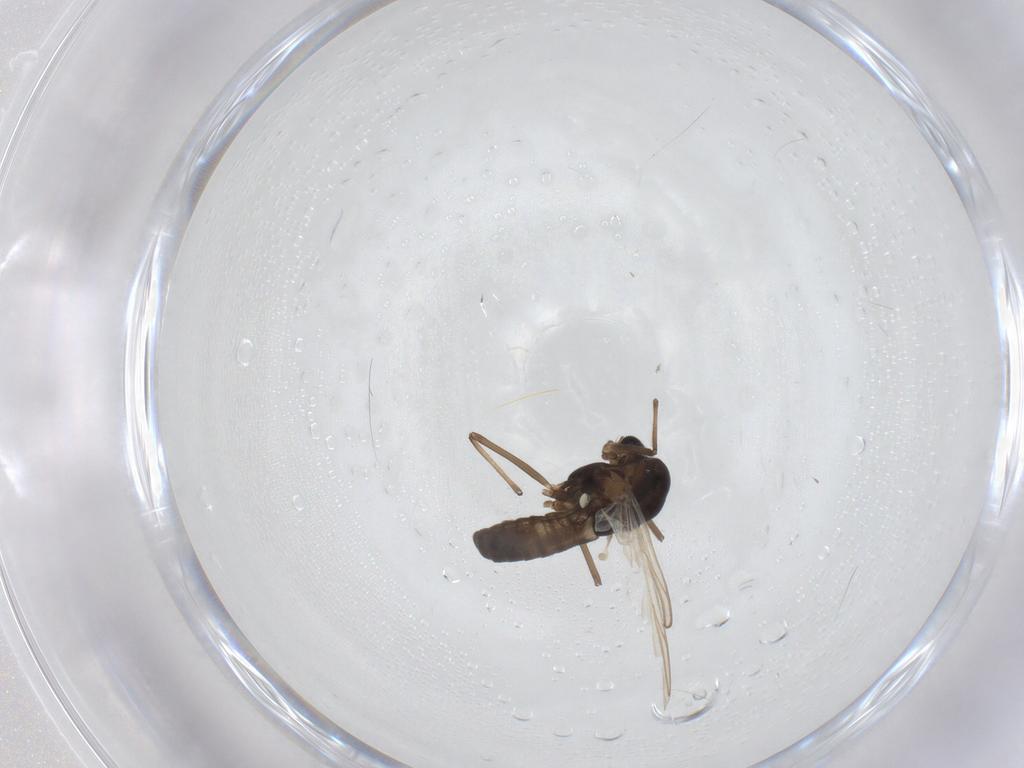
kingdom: Animalia
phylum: Arthropoda
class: Insecta
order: Diptera
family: Chironomidae
